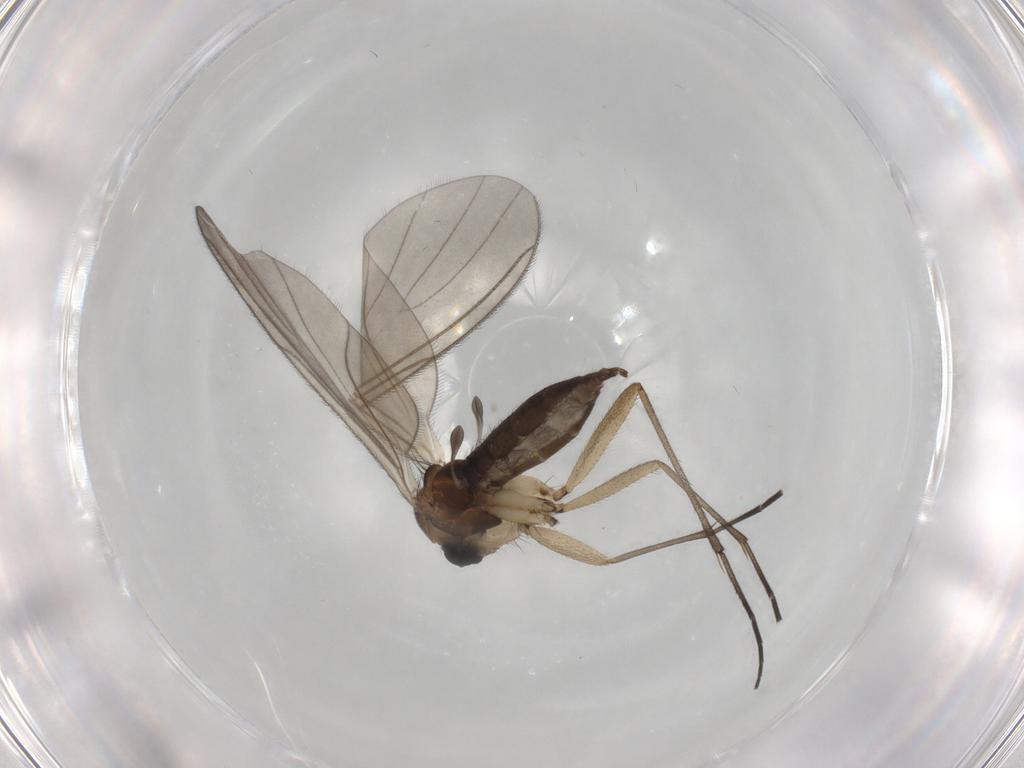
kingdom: Animalia
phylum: Arthropoda
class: Insecta
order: Diptera
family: Sciaridae
